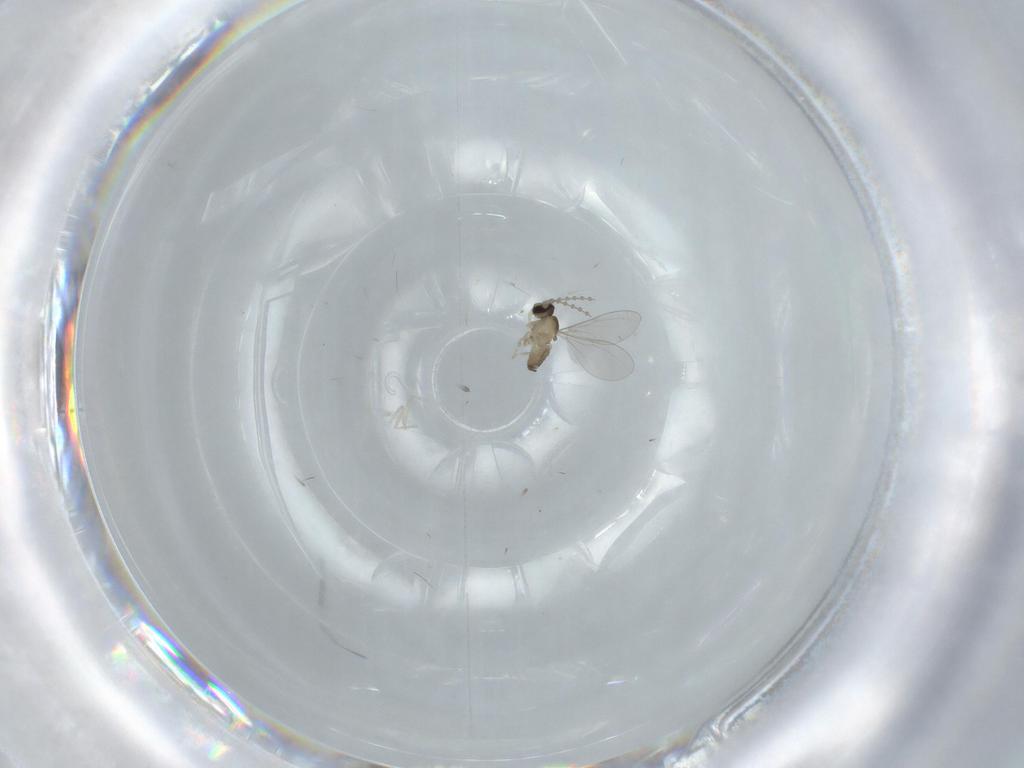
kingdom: Animalia
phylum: Arthropoda
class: Insecta
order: Diptera
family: Cecidomyiidae
